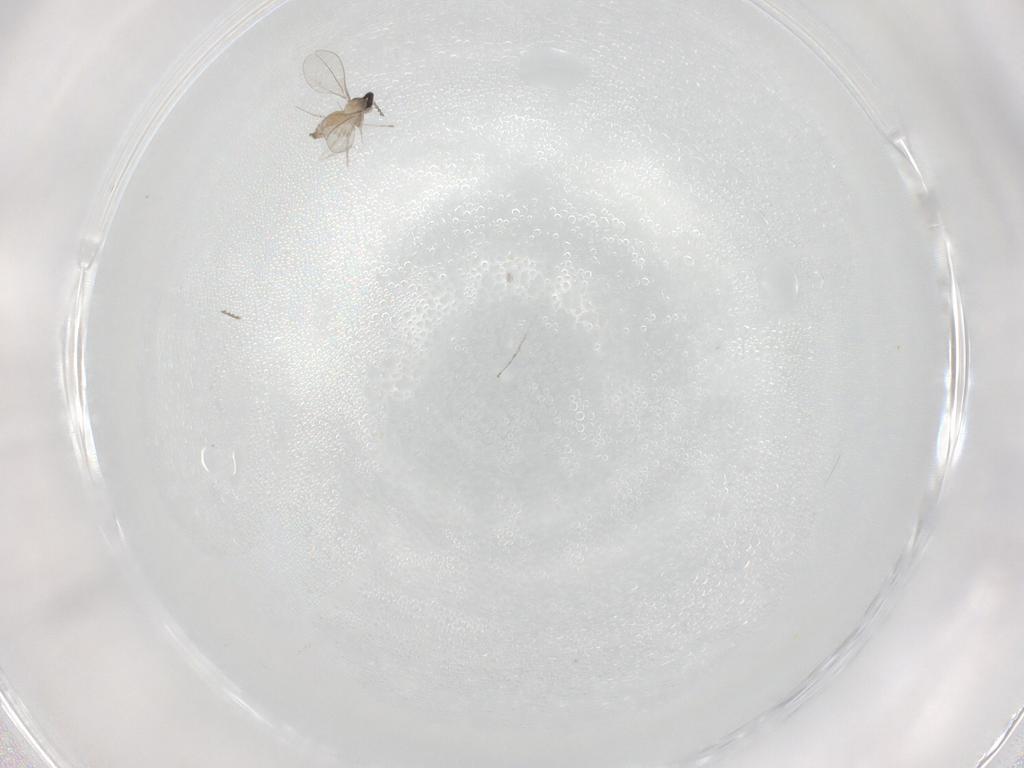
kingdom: Animalia
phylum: Arthropoda
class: Insecta
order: Diptera
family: Cecidomyiidae
